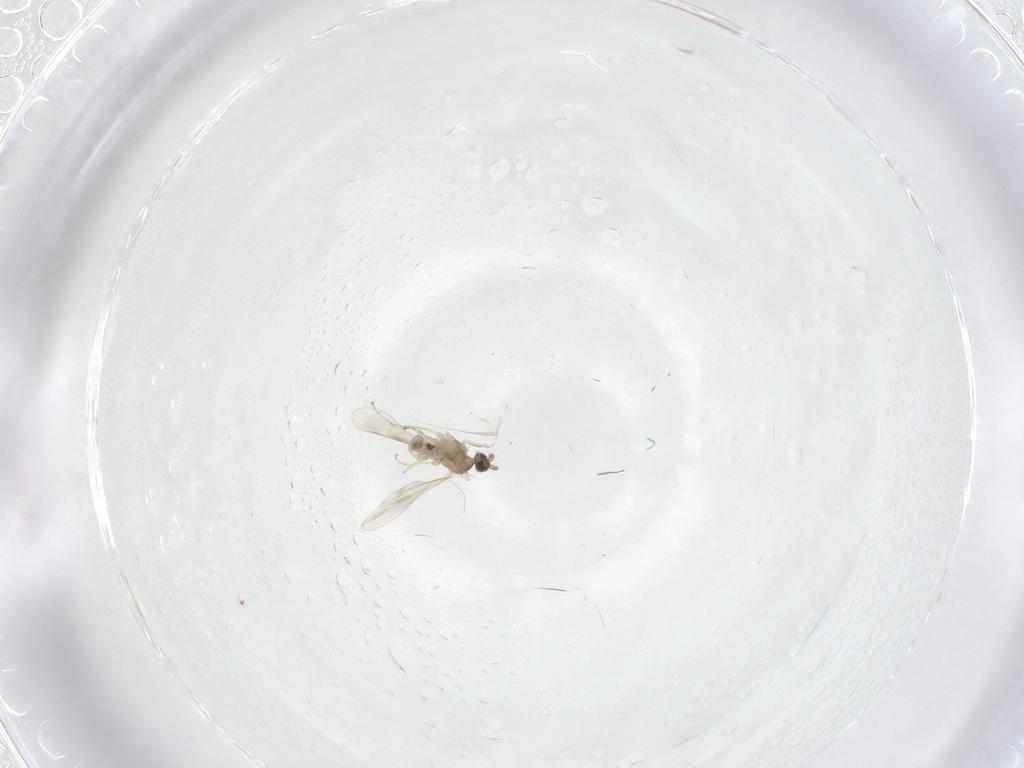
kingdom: Animalia
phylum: Arthropoda
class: Insecta
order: Diptera
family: Cecidomyiidae
